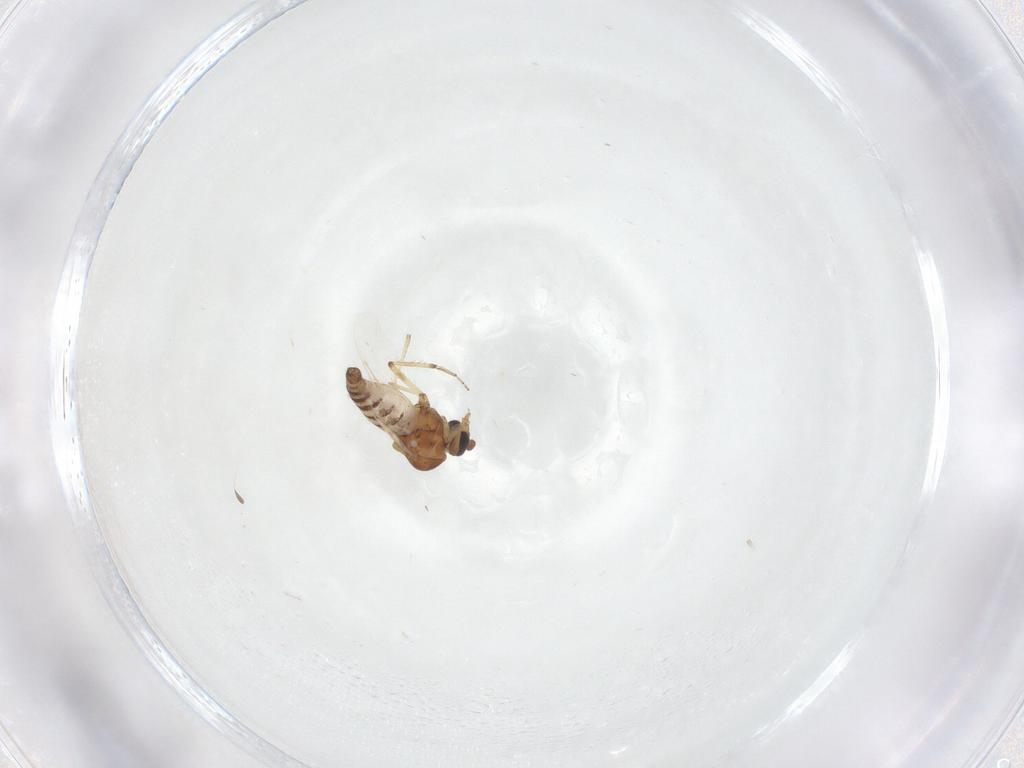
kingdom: Animalia
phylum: Arthropoda
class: Insecta
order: Diptera
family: Ceratopogonidae
